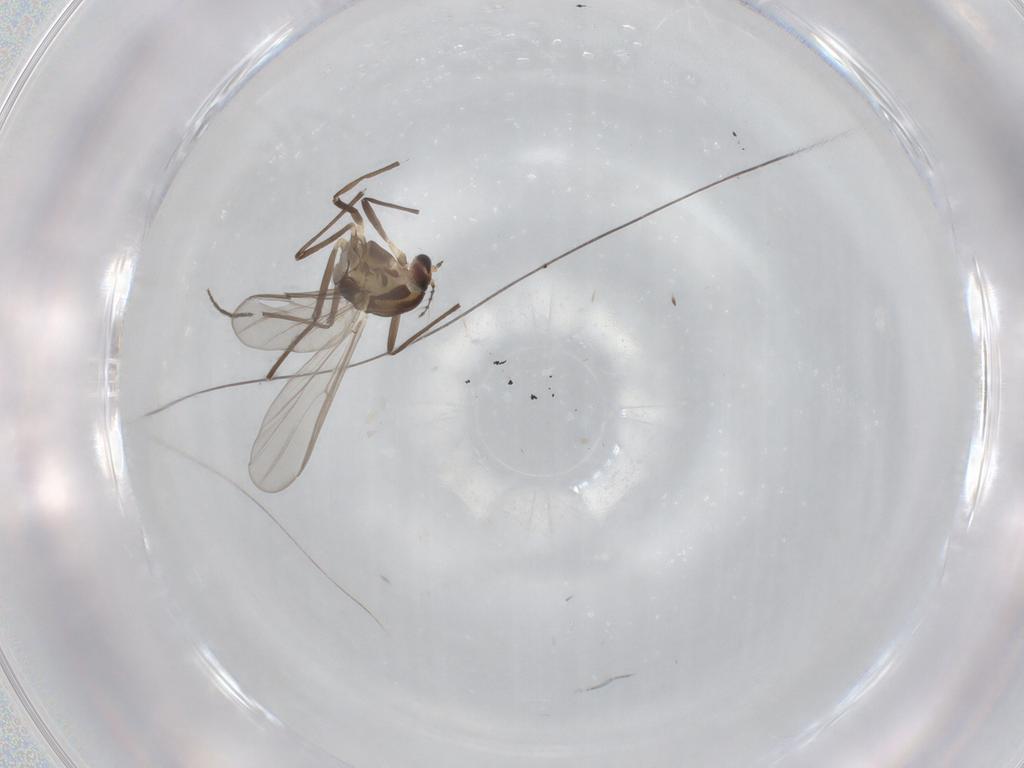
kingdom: Animalia
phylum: Arthropoda
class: Insecta
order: Diptera
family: Chironomidae
